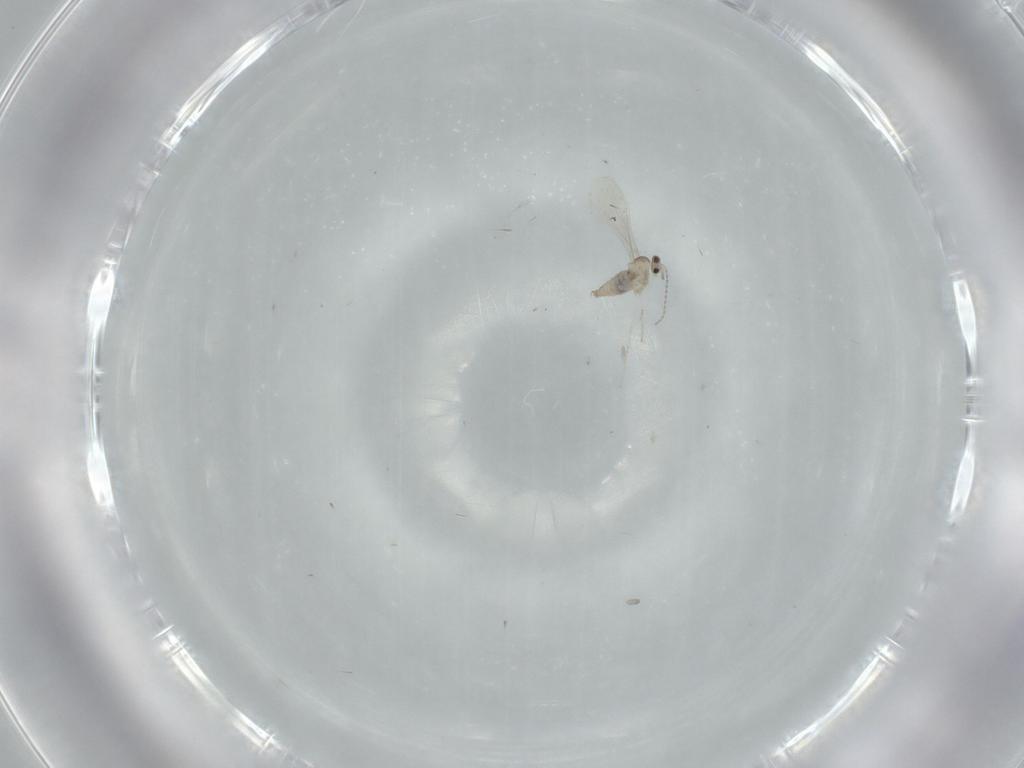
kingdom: Animalia
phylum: Arthropoda
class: Insecta
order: Diptera
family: Cecidomyiidae
